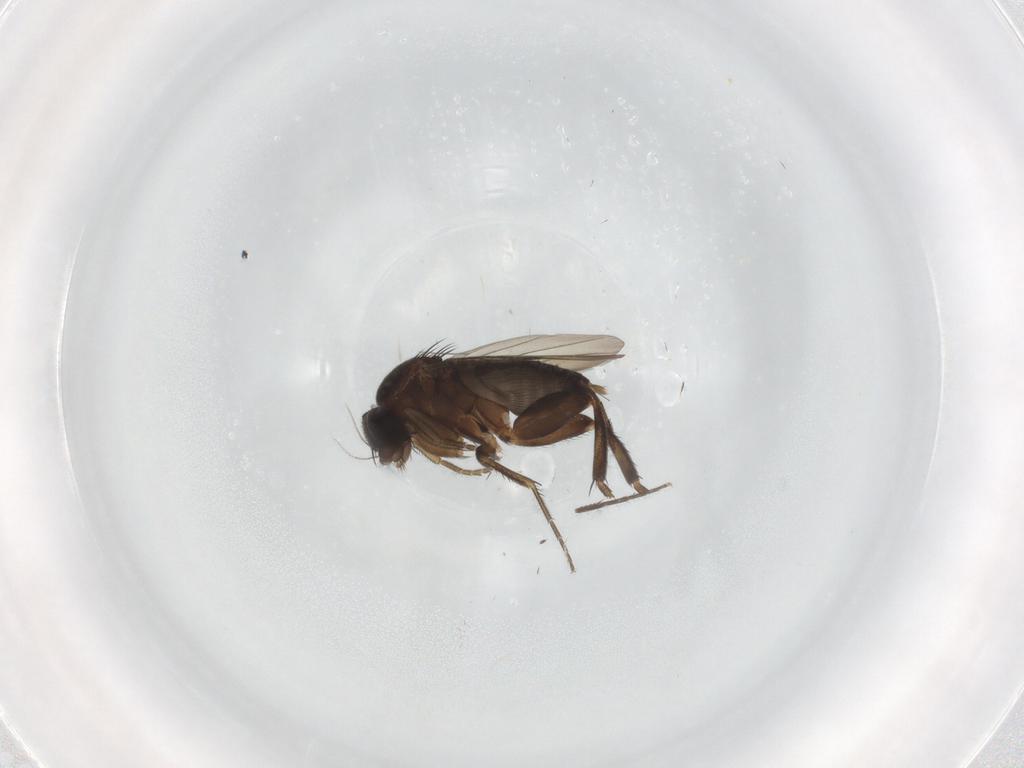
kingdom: Animalia
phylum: Arthropoda
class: Insecta
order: Diptera
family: Phoridae
